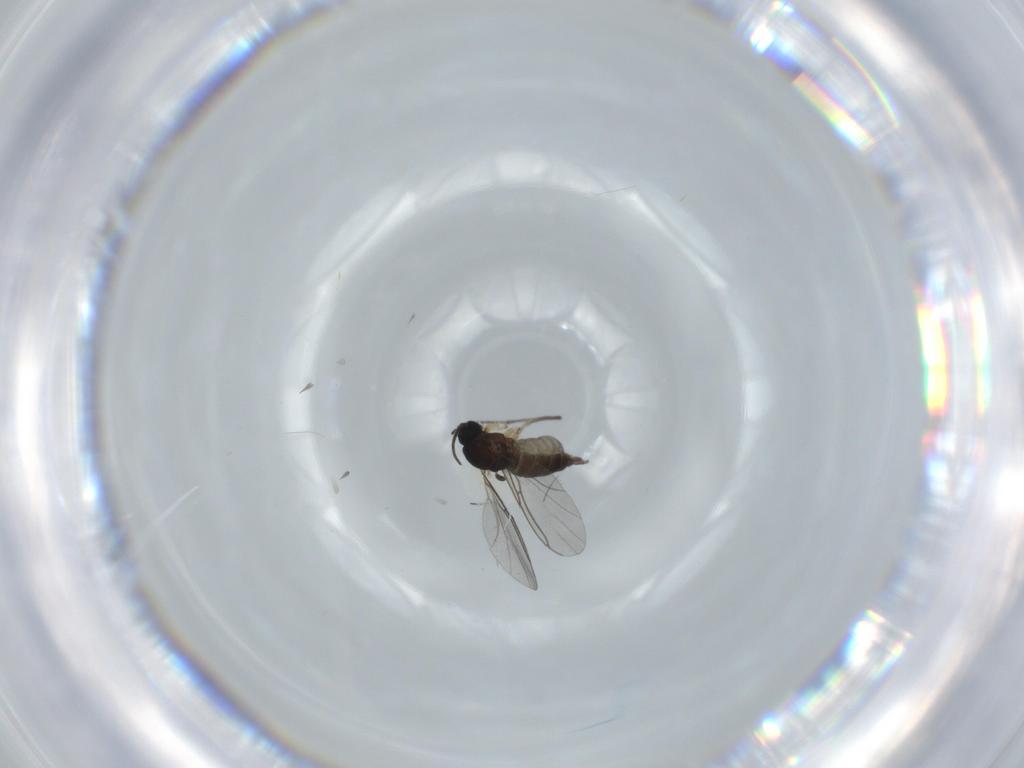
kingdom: Animalia
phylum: Arthropoda
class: Insecta
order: Diptera
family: Sciaridae
